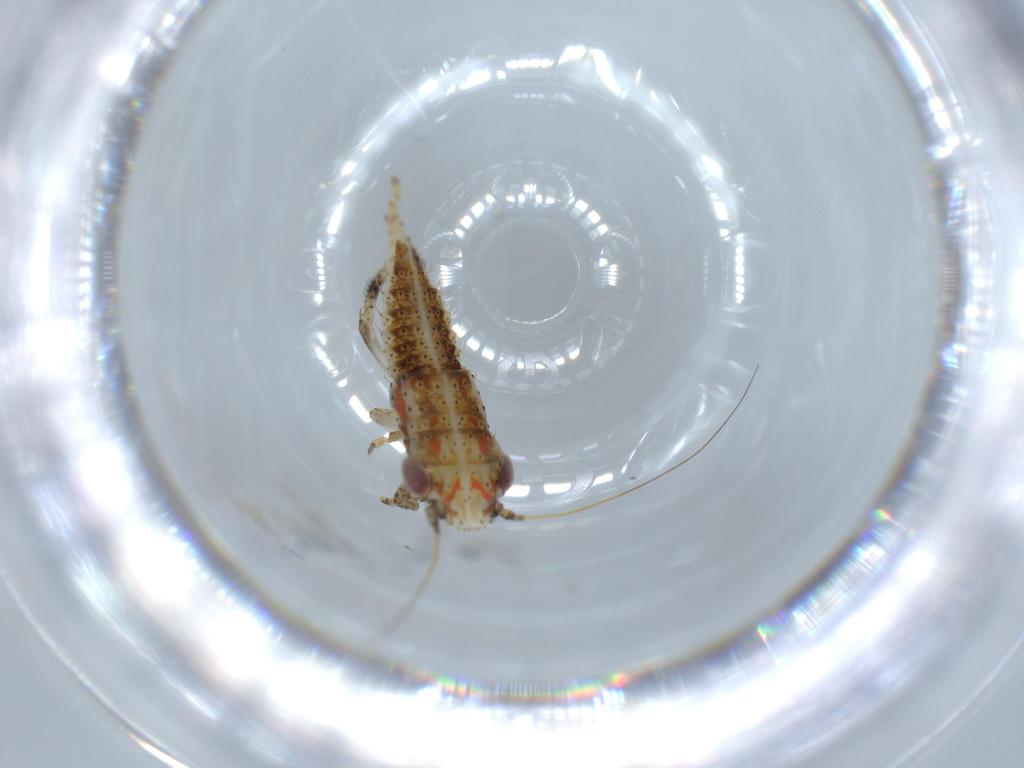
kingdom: Animalia
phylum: Arthropoda
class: Insecta
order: Hemiptera
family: Cicadellidae
